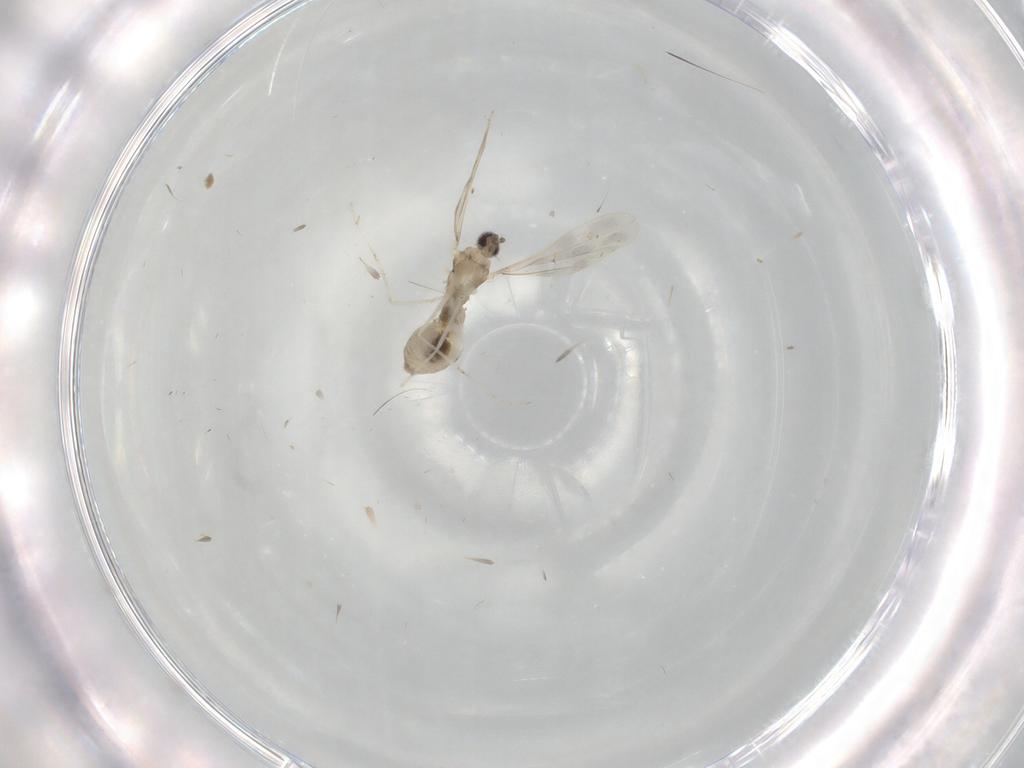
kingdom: Animalia
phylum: Arthropoda
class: Insecta
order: Diptera
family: Cecidomyiidae
